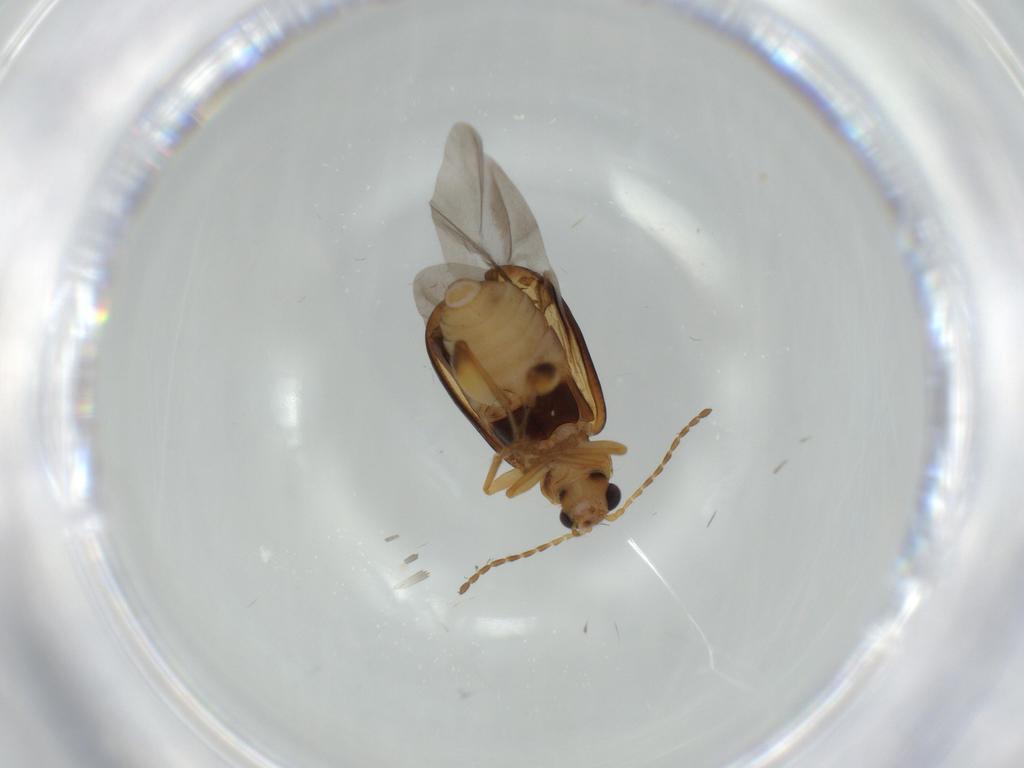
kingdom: Animalia
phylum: Arthropoda
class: Insecta
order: Coleoptera
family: Chrysomelidae
